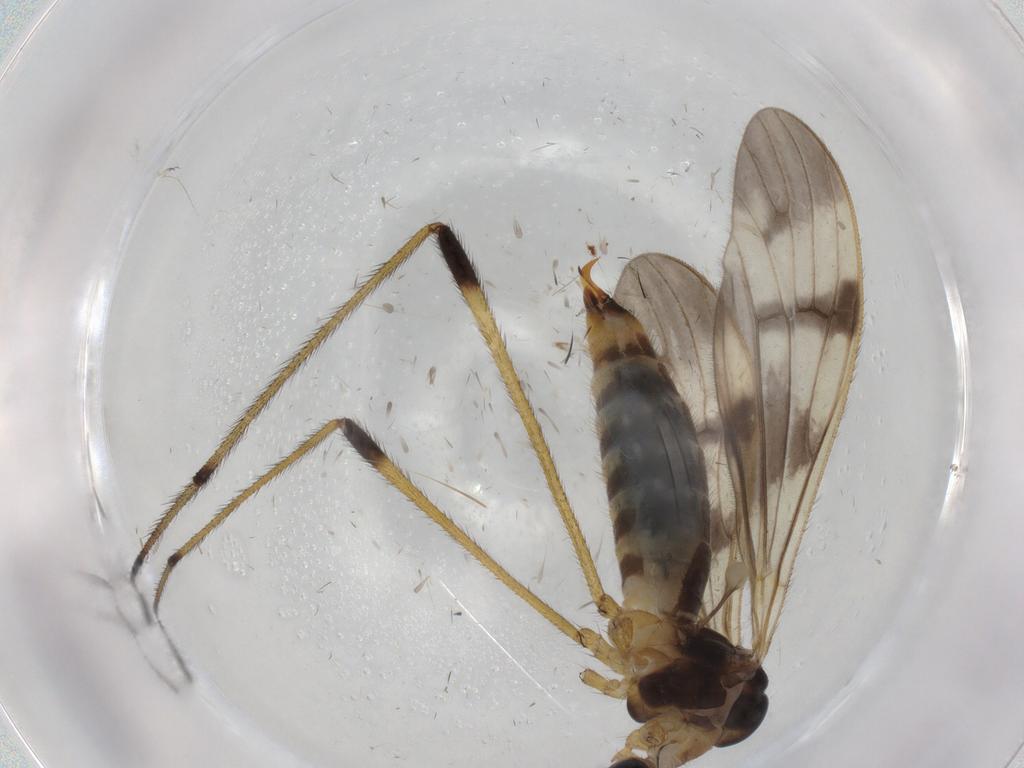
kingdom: Animalia
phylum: Arthropoda
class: Insecta
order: Diptera
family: Limoniidae
